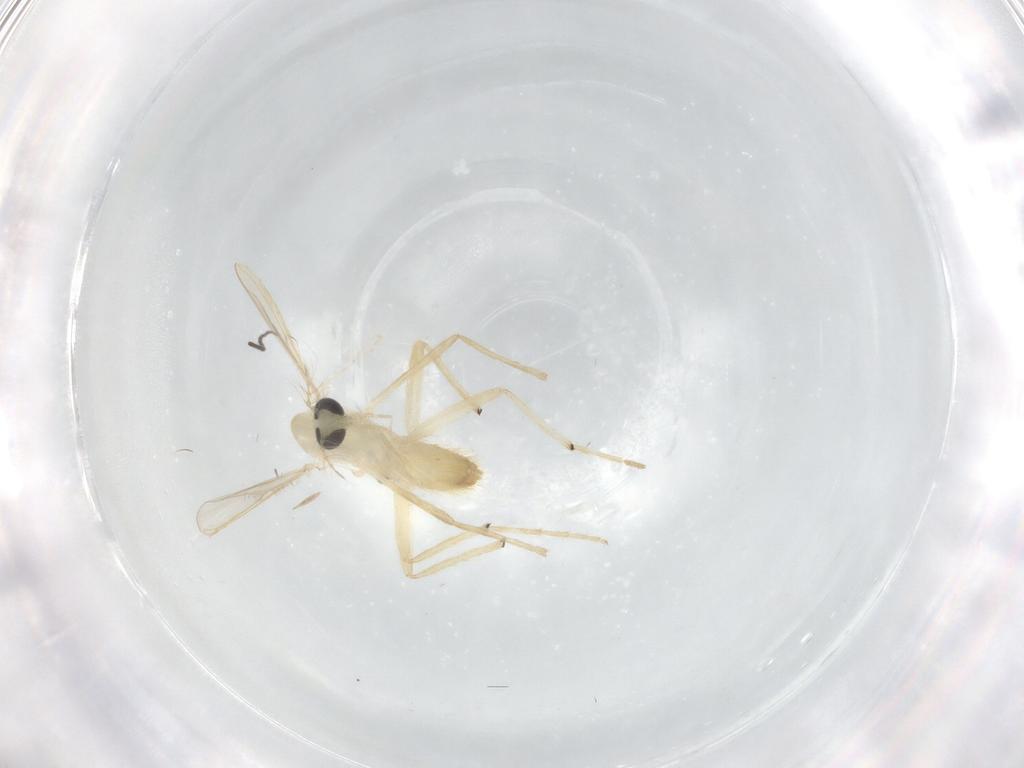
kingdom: Animalia
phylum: Arthropoda
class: Insecta
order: Diptera
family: Chironomidae
